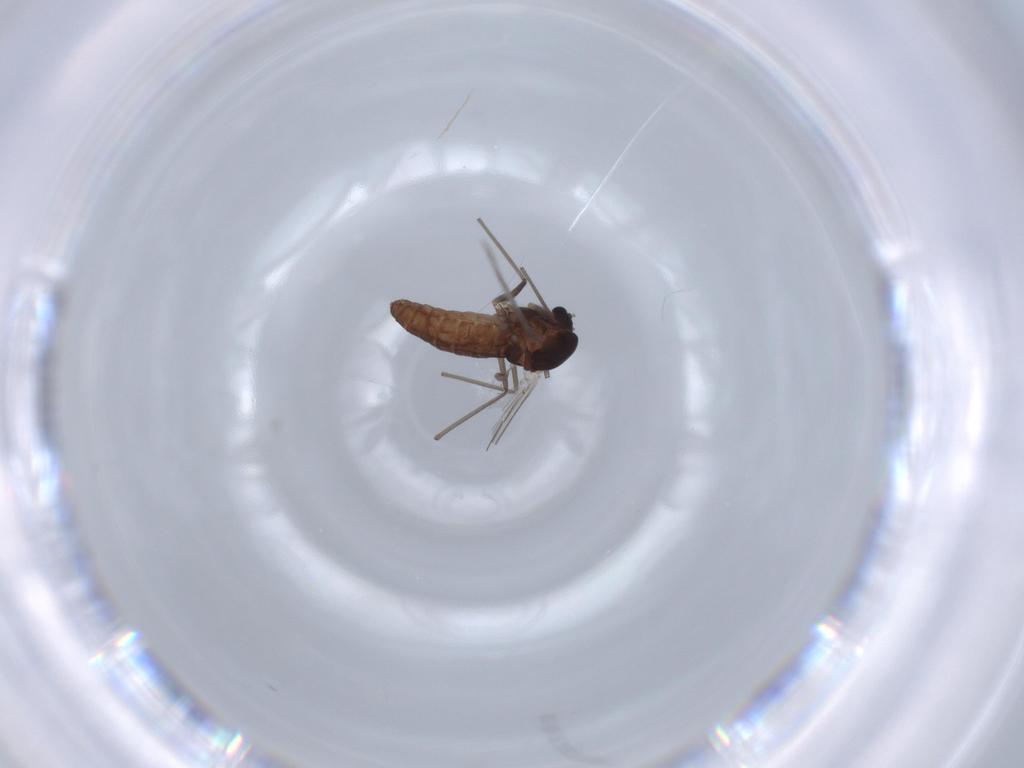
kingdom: Animalia
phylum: Arthropoda
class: Insecta
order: Diptera
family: Chironomidae
